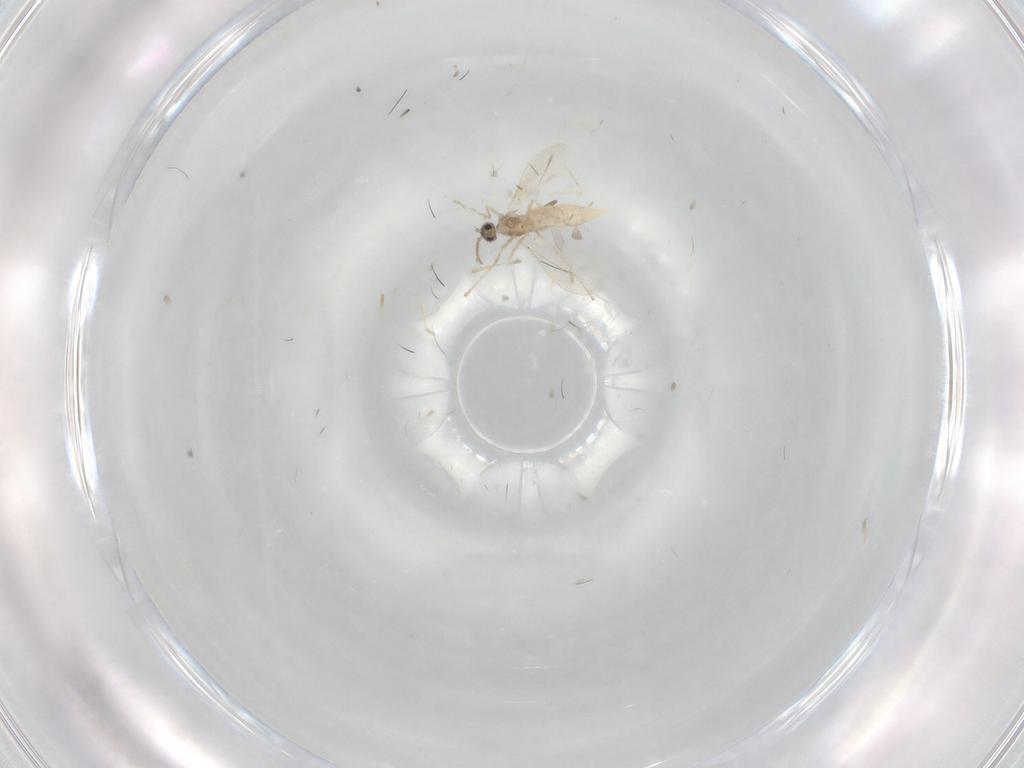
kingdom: Animalia
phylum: Arthropoda
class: Insecta
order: Diptera
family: Cecidomyiidae
